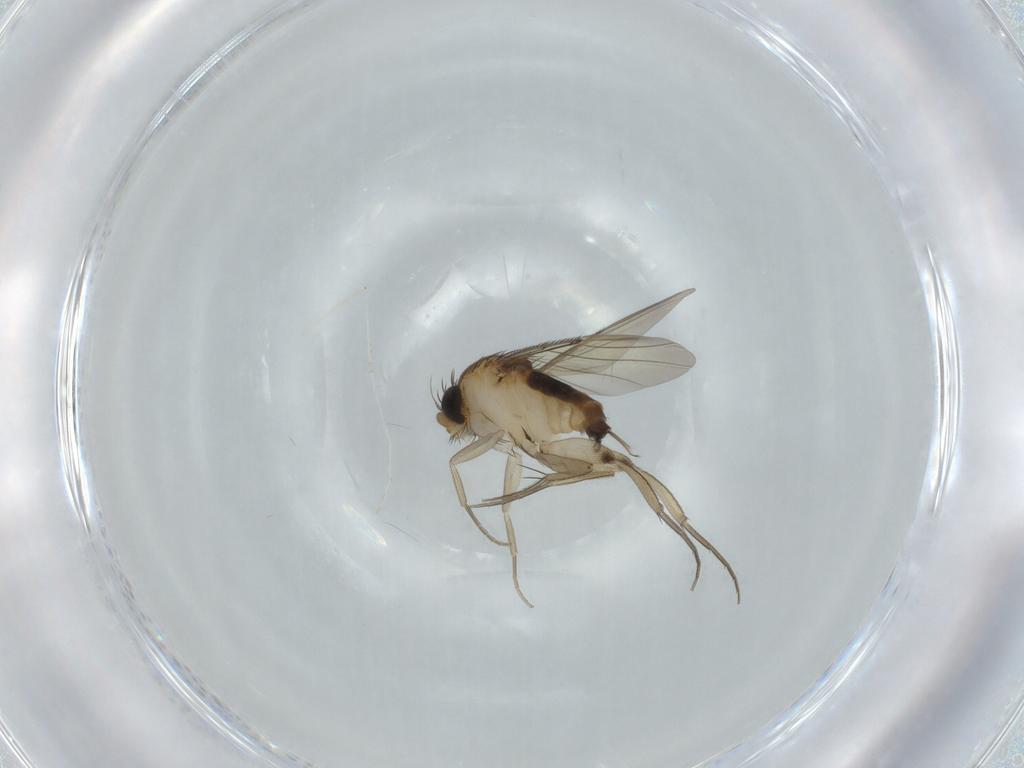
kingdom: Animalia
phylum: Arthropoda
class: Insecta
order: Diptera
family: Phoridae
